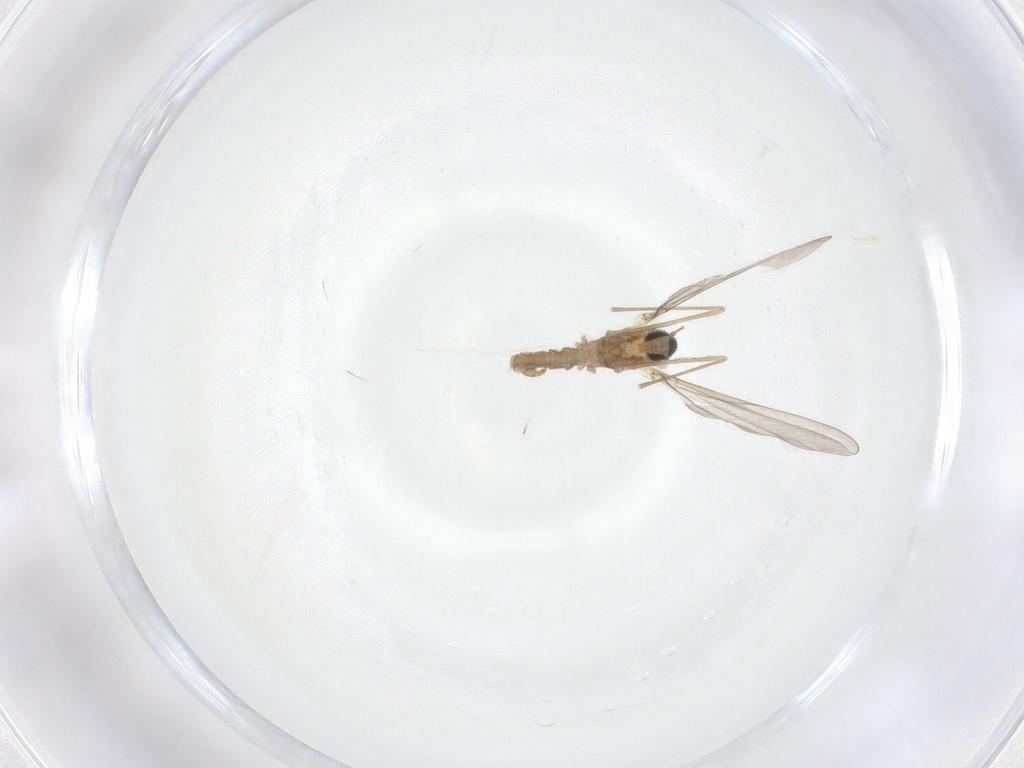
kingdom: Animalia
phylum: Arthropoda
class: Insecta
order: Diptera
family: Cecidomyiidae
